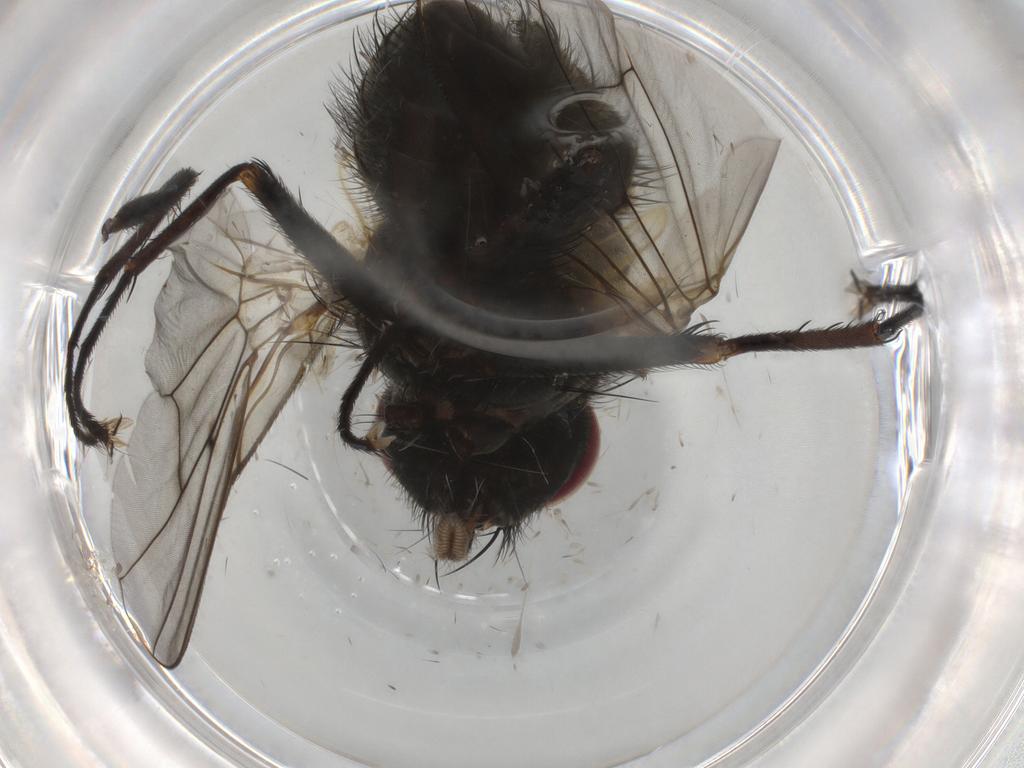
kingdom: Animalia
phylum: Arthropoda
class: Insecta
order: Diptera
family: Muscidae
